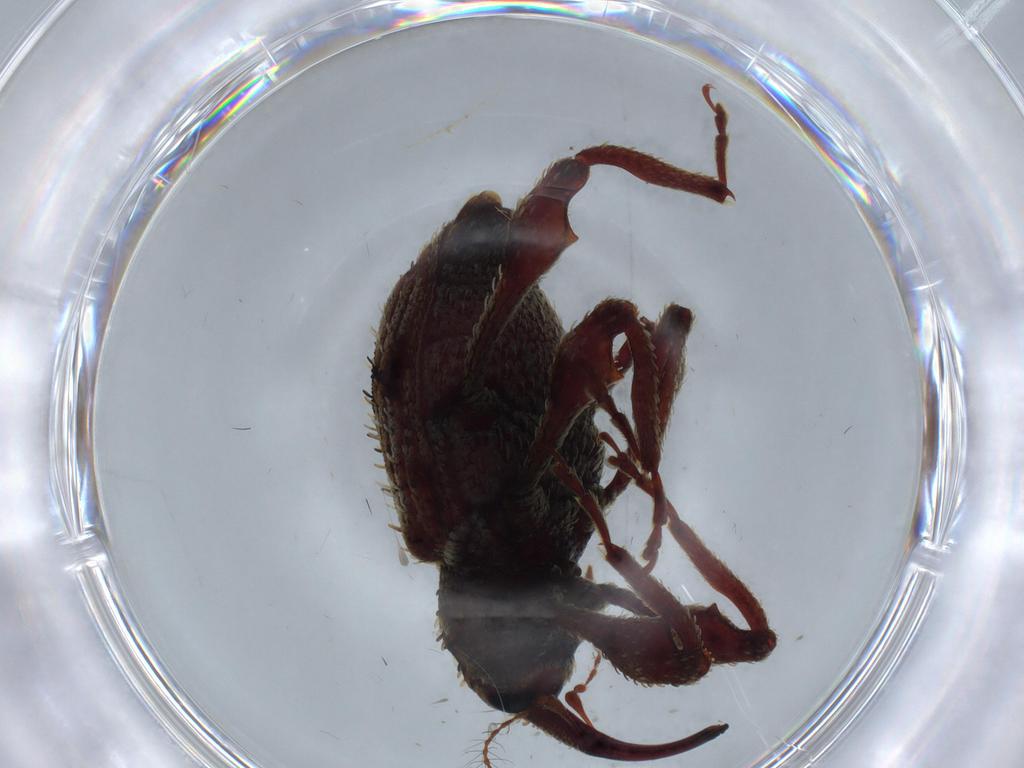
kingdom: Animalia
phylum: Arthropoda
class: Insecta
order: Coleoptera
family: Curculionidae
